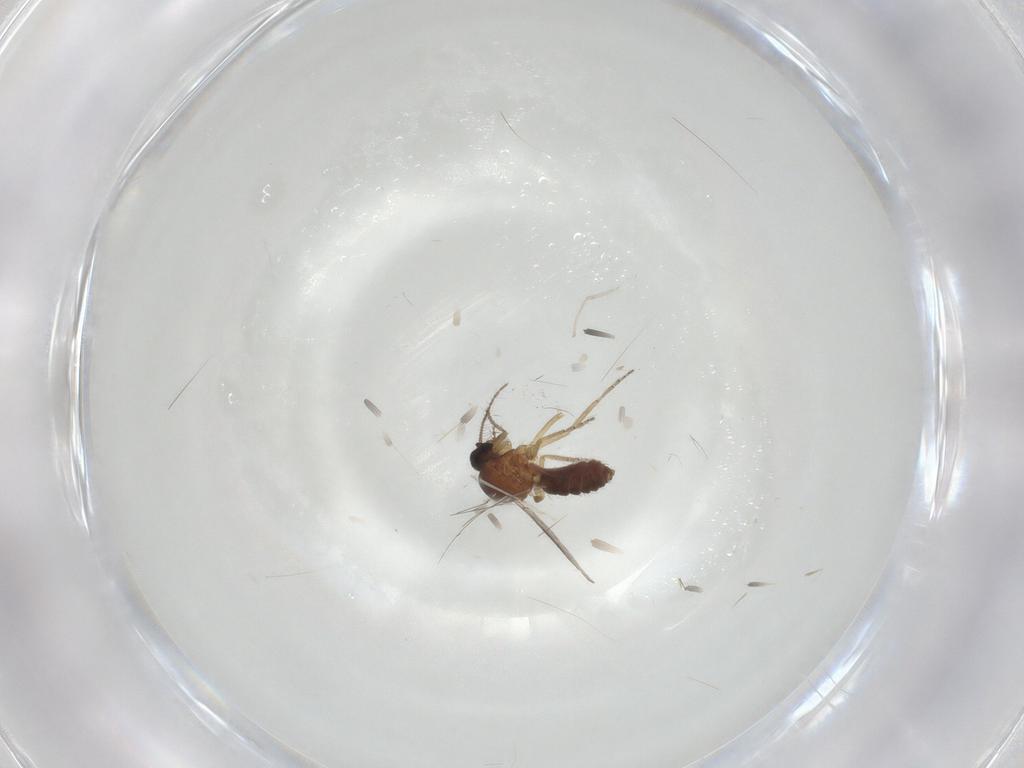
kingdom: Animalia
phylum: Arthropoda
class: Insecta
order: Diptera
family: Ceratopogonidae
